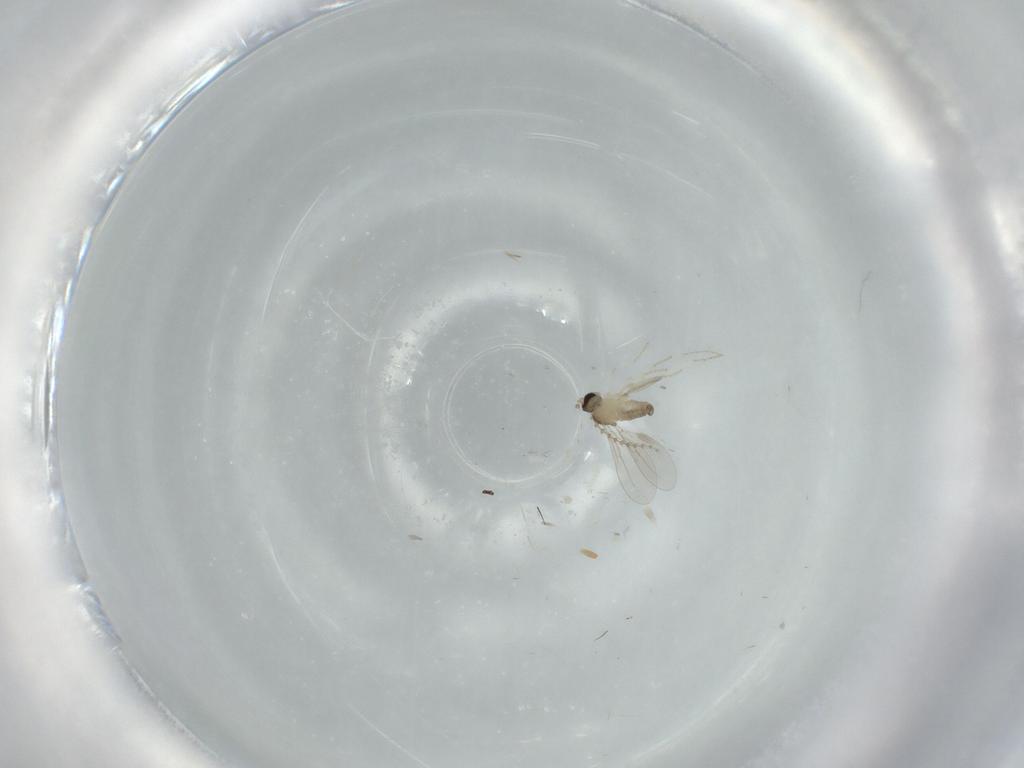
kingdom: Animalia
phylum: Arthropoda
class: Insecta
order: Diptera
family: Cecidomyiidae
